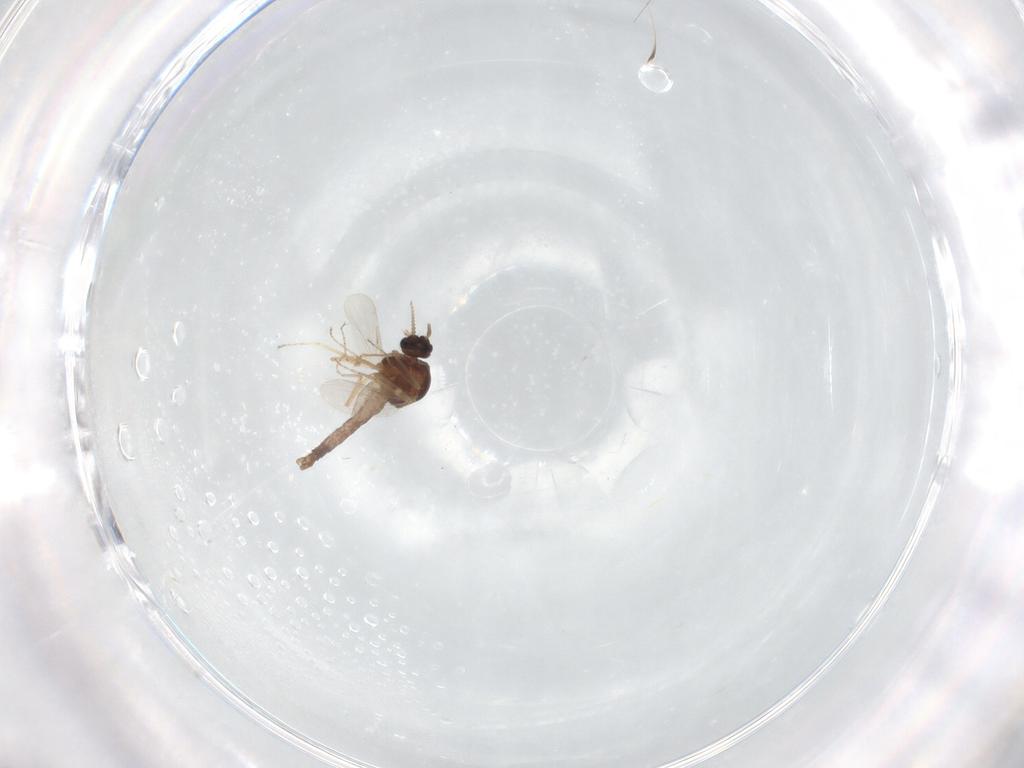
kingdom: Animalia
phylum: Arthropoda
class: Insecta
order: Diptera
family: Ceratopogonidae
